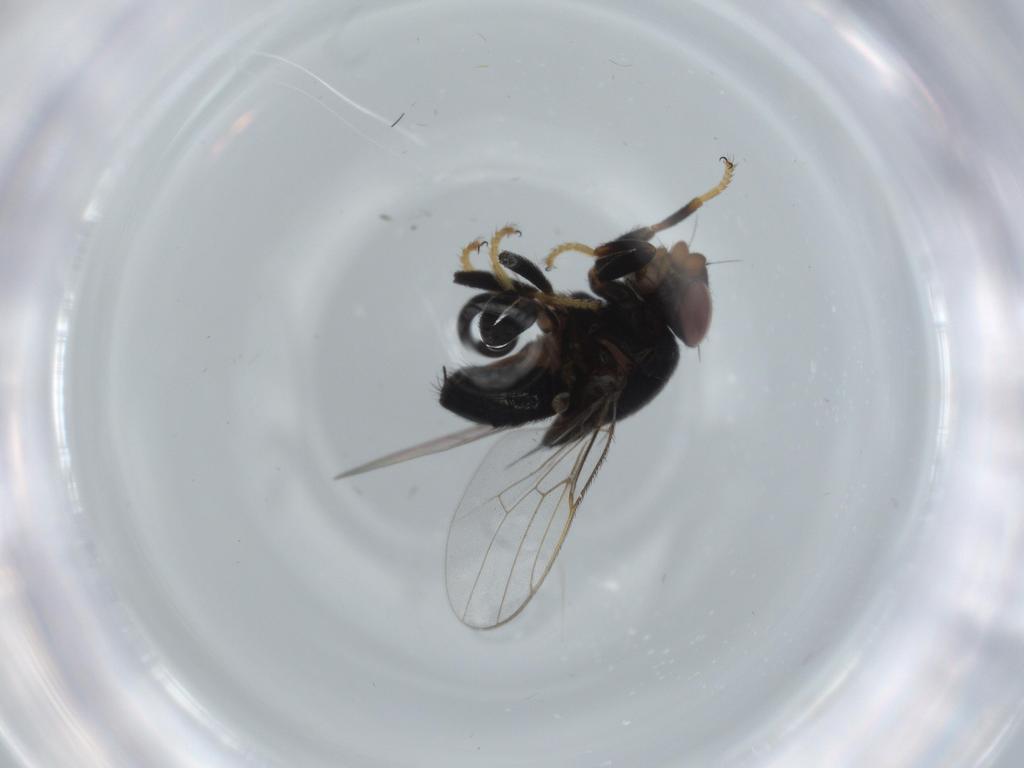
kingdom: Animalia
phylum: Arthropoda
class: Insecta
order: Diptera
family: Chloropidae
